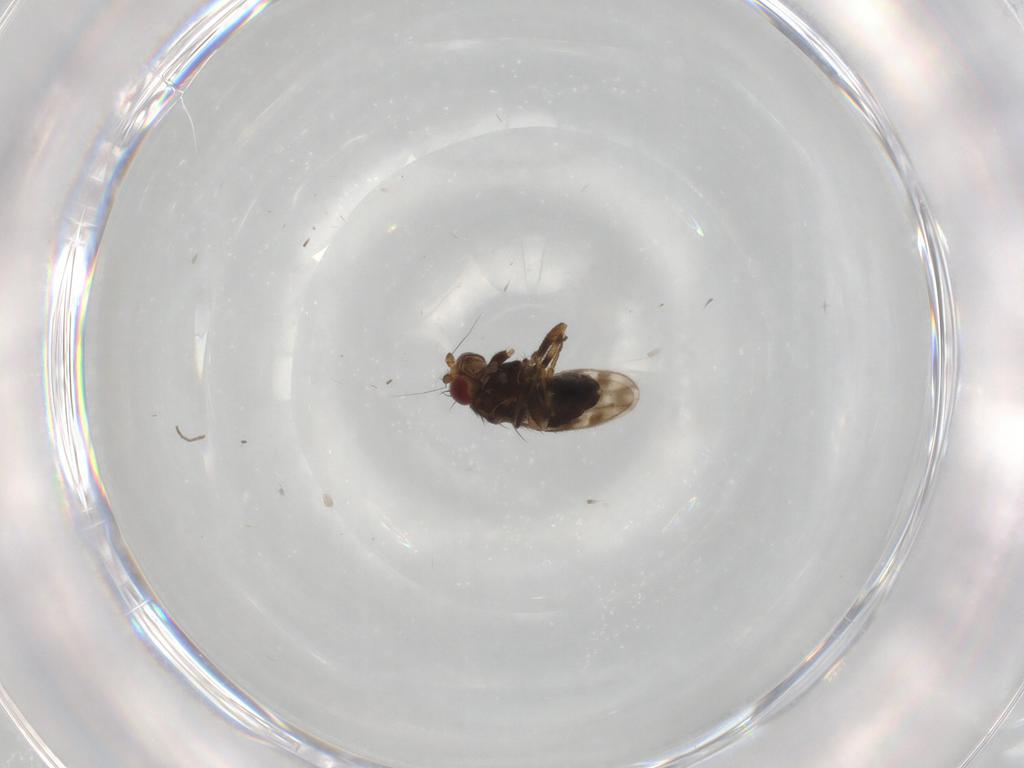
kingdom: Animalia
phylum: Arthropoda
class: Insecta
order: Diptera
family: Sphaeroceridae
